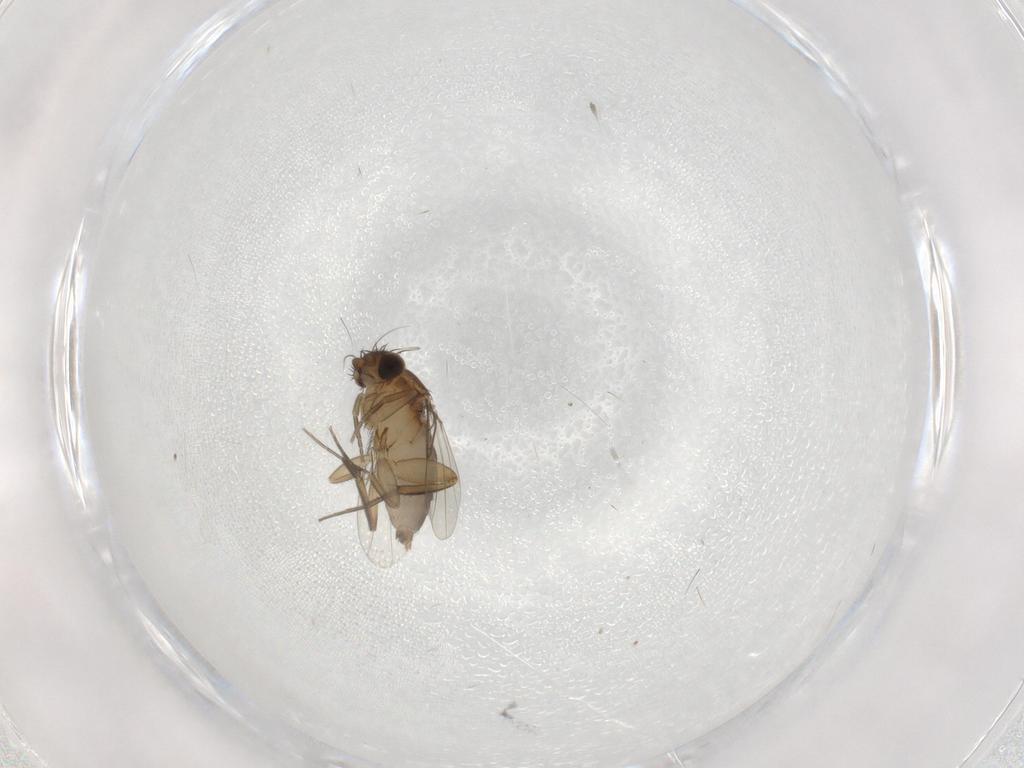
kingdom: Animalia
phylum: Arthropoda
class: Insecta
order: Diptera
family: Phoridae
